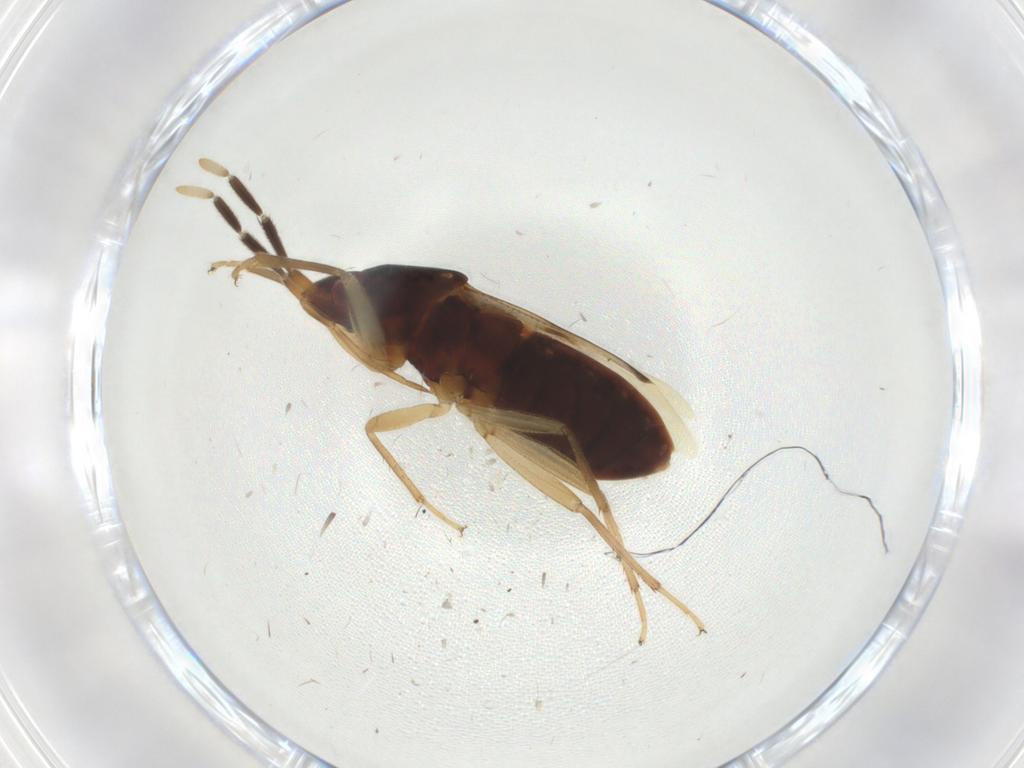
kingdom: Animalia
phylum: Arthropoda
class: Insecta
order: Hemiptera
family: Rhyparochromidae
